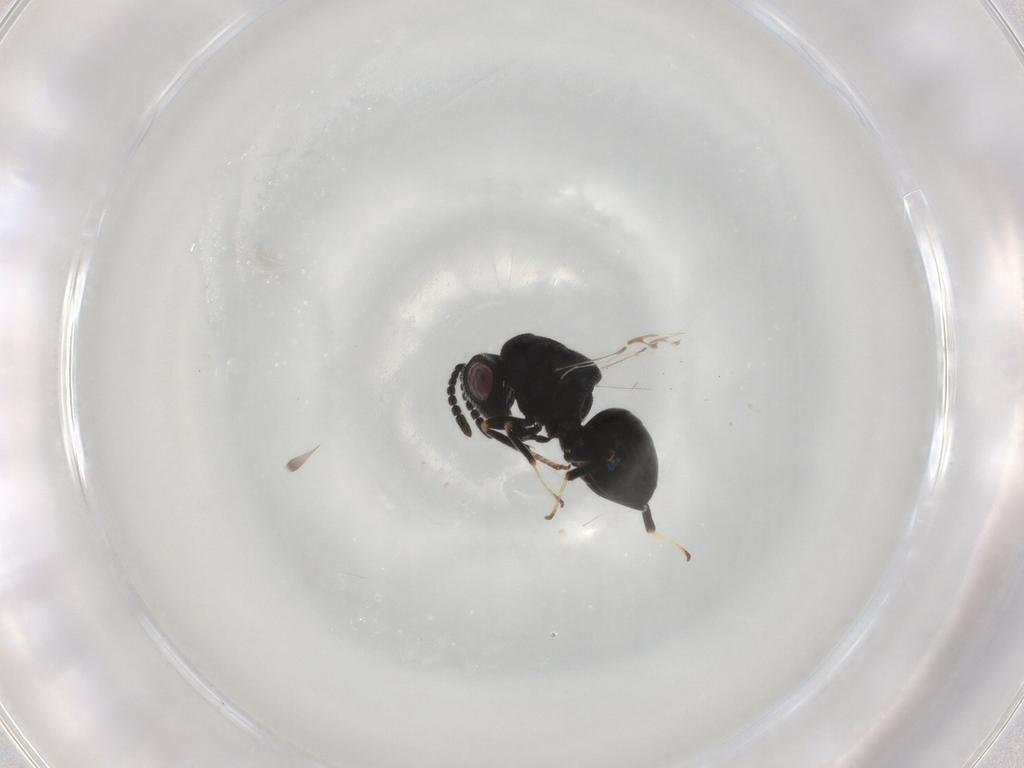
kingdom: Animalia
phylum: Arthropoda
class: Insecta
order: Hymenoptera
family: Eurytomidae
